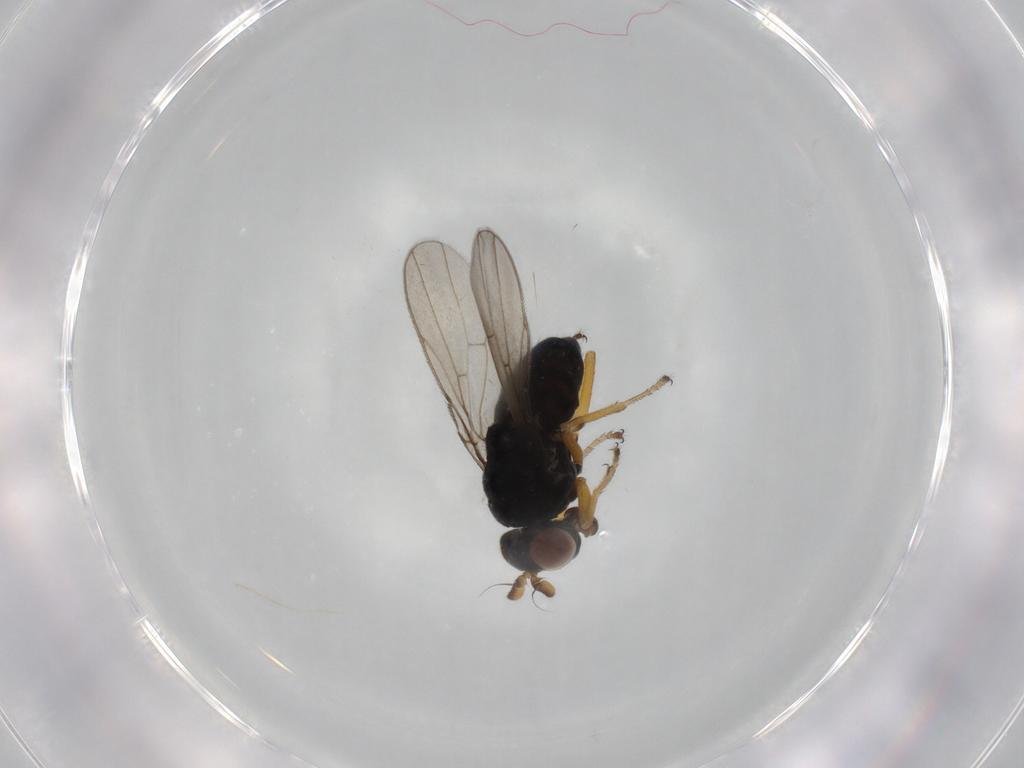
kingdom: Animalia
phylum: Arthropoda
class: Insecta
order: Diptera
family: Ephydridae
